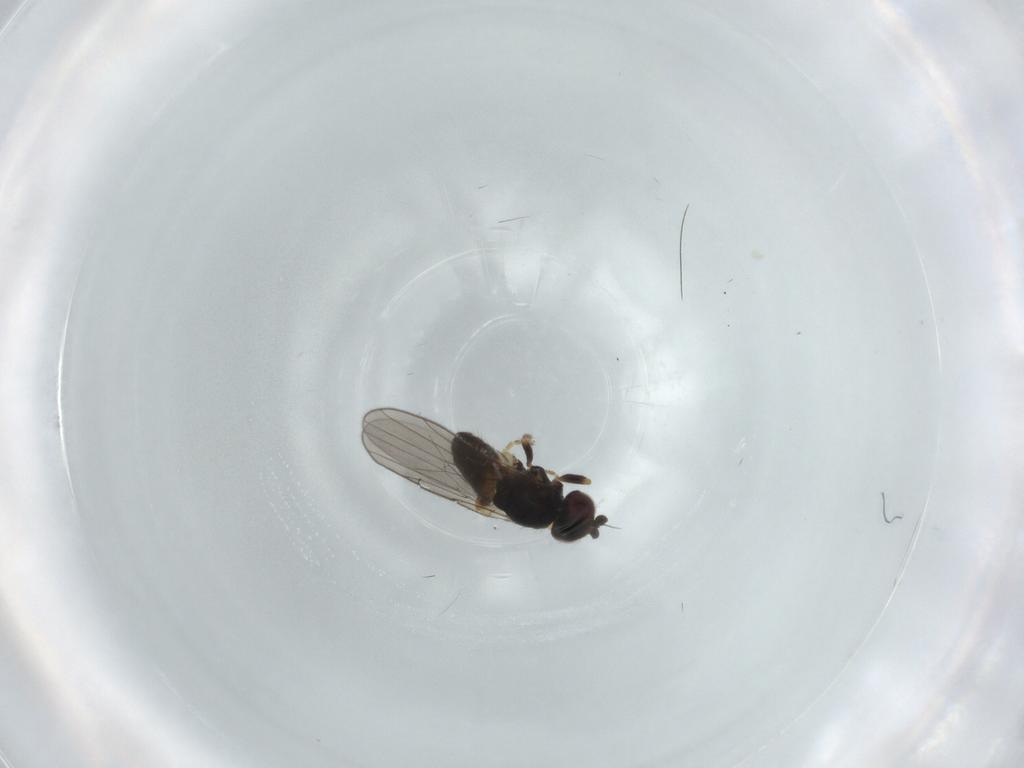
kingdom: Animalia
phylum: Arthropoda
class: Insecta
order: Diptera
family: Chloropidae
